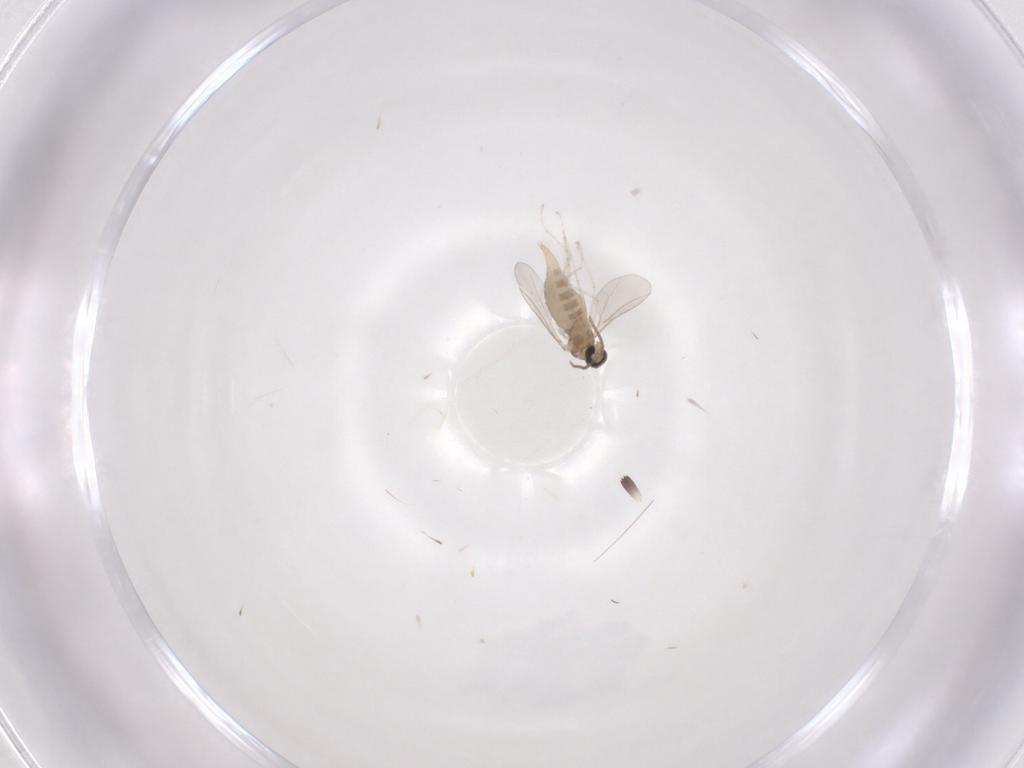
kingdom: Animalia
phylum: Arthropoda
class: Insecta
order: Diptera
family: Cecidomyiidae
